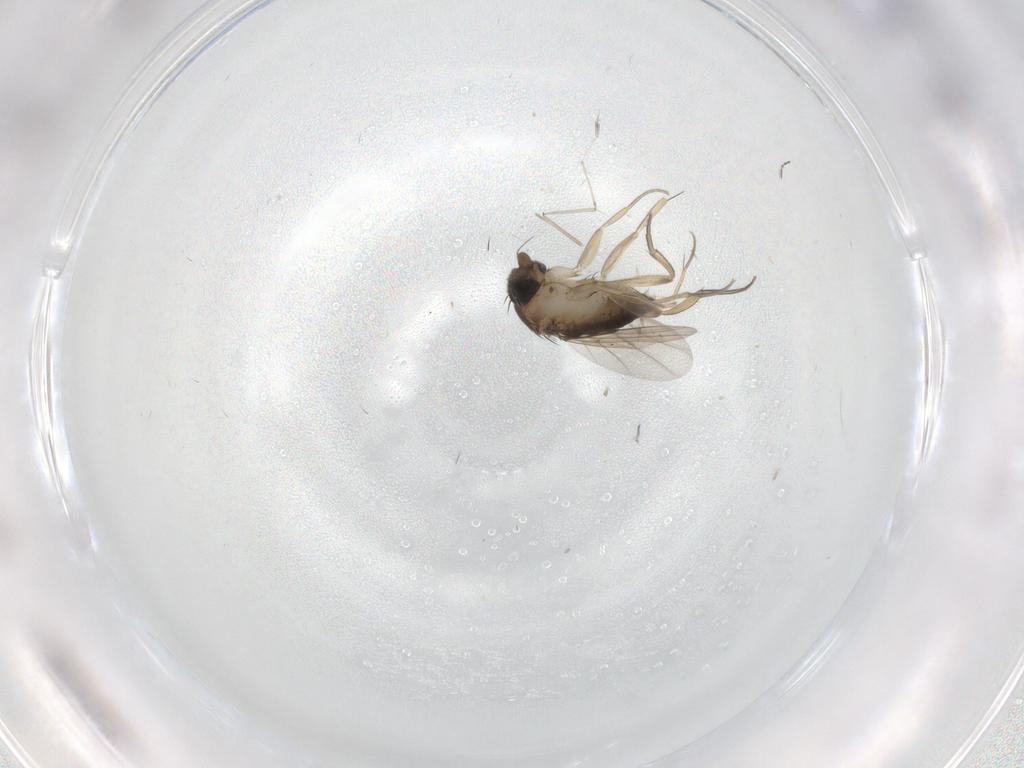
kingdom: Animalia
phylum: Arthropoda
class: Insecta
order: Diptera
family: Phoridae
